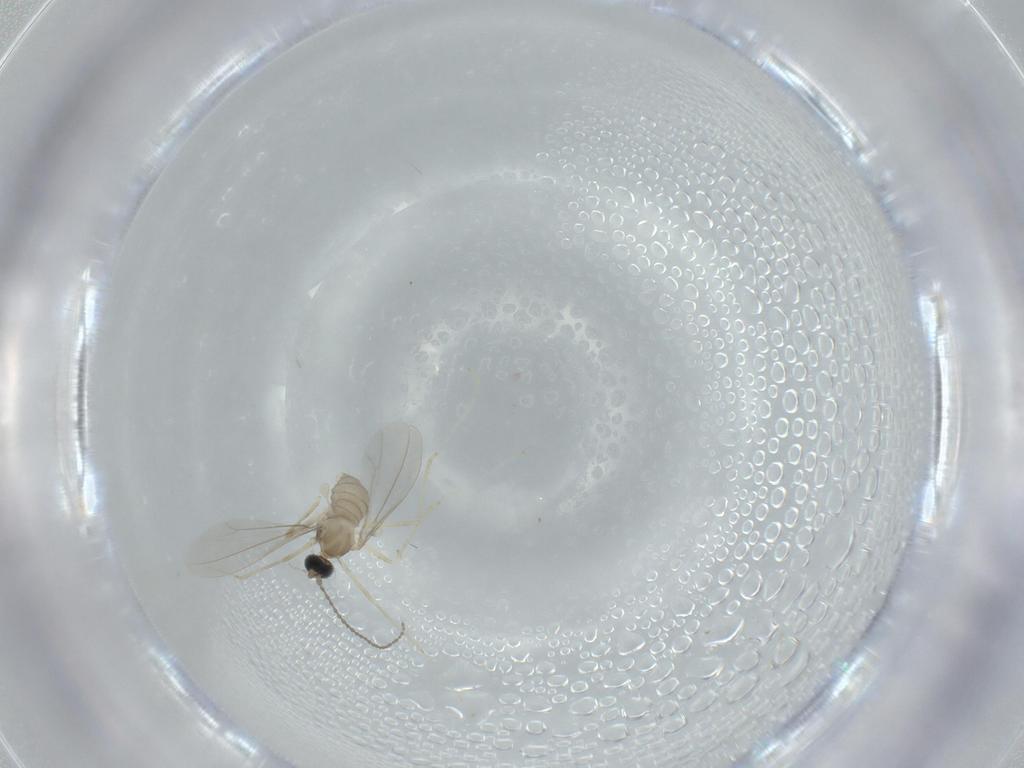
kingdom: Animalia
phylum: Arthropoda
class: Insecta
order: Diptera
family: Cecidomyiidae
